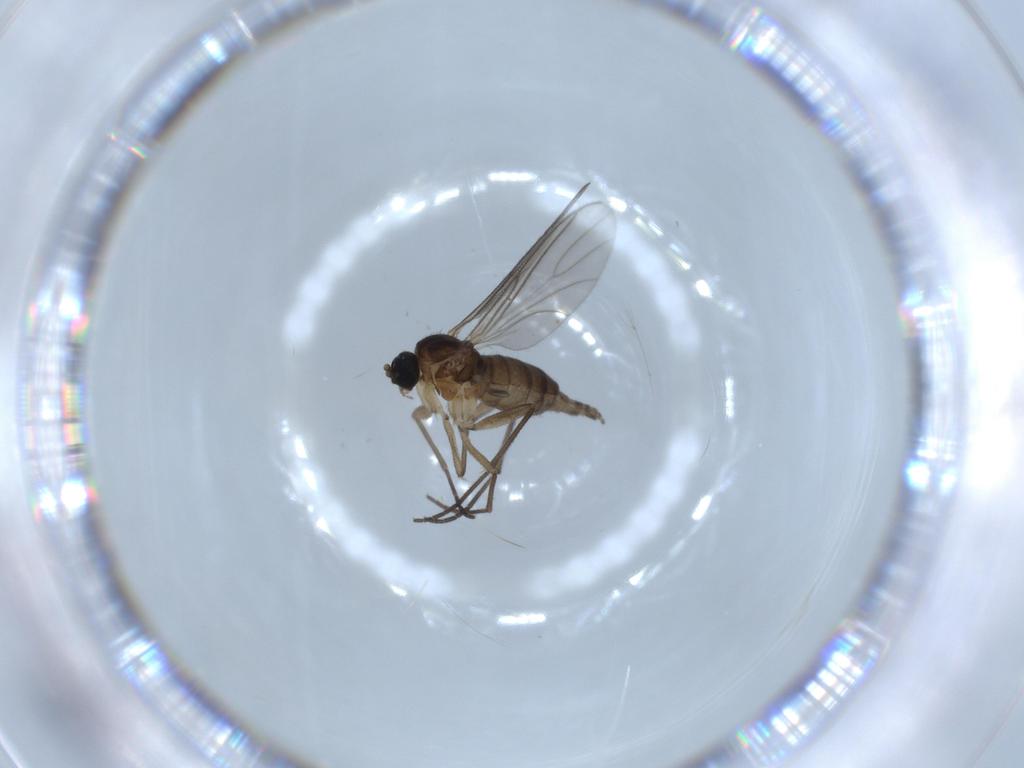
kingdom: Animalia
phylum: Arthropoda
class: Insecta
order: Diptera
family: Sciaridae
